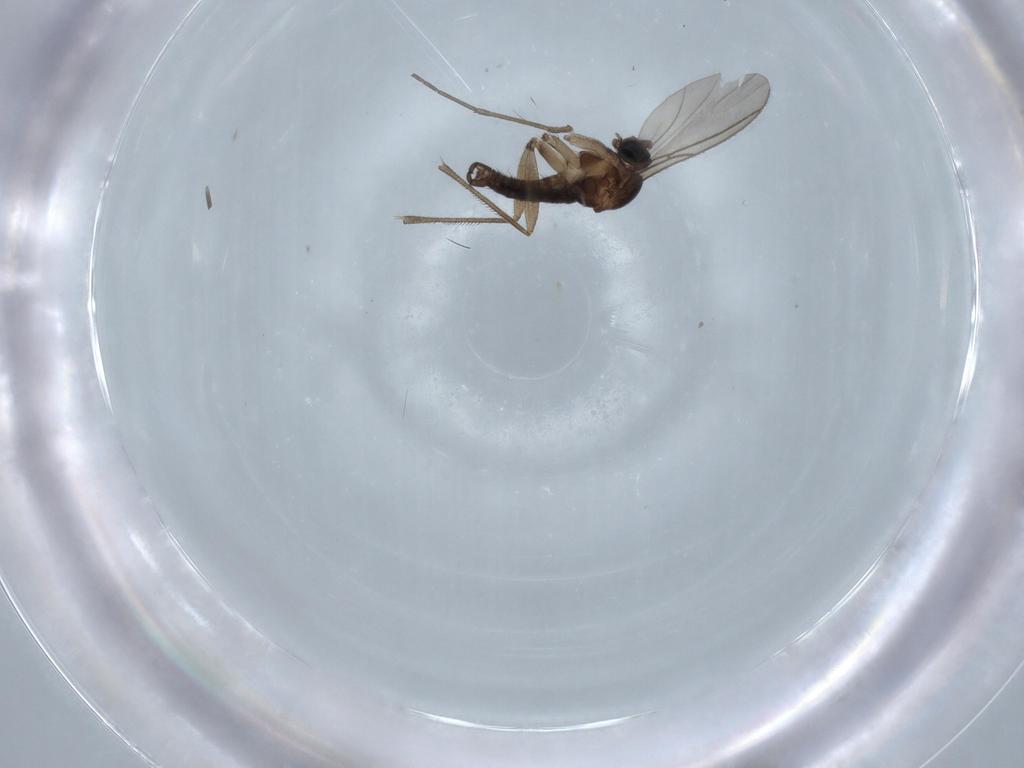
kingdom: Animalia
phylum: Arthropoda
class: Insecta
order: Diptera
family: Sciaridae
